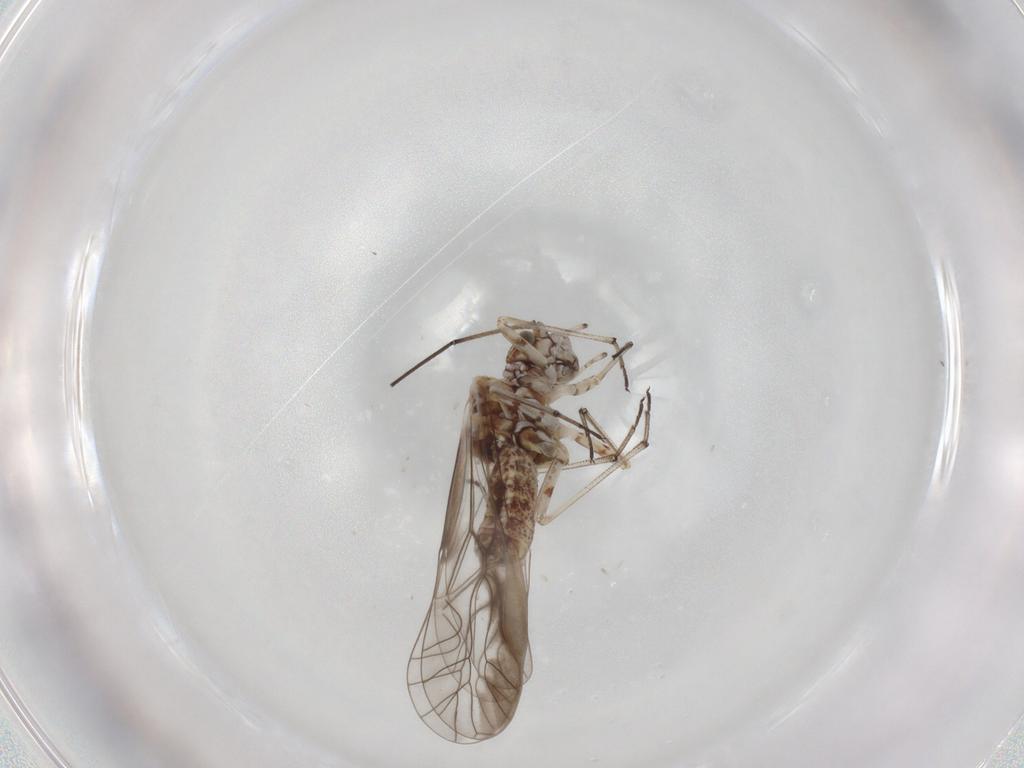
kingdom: Animalia
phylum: Arthropoda
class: Insecta
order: Psocodea
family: Psocidae
